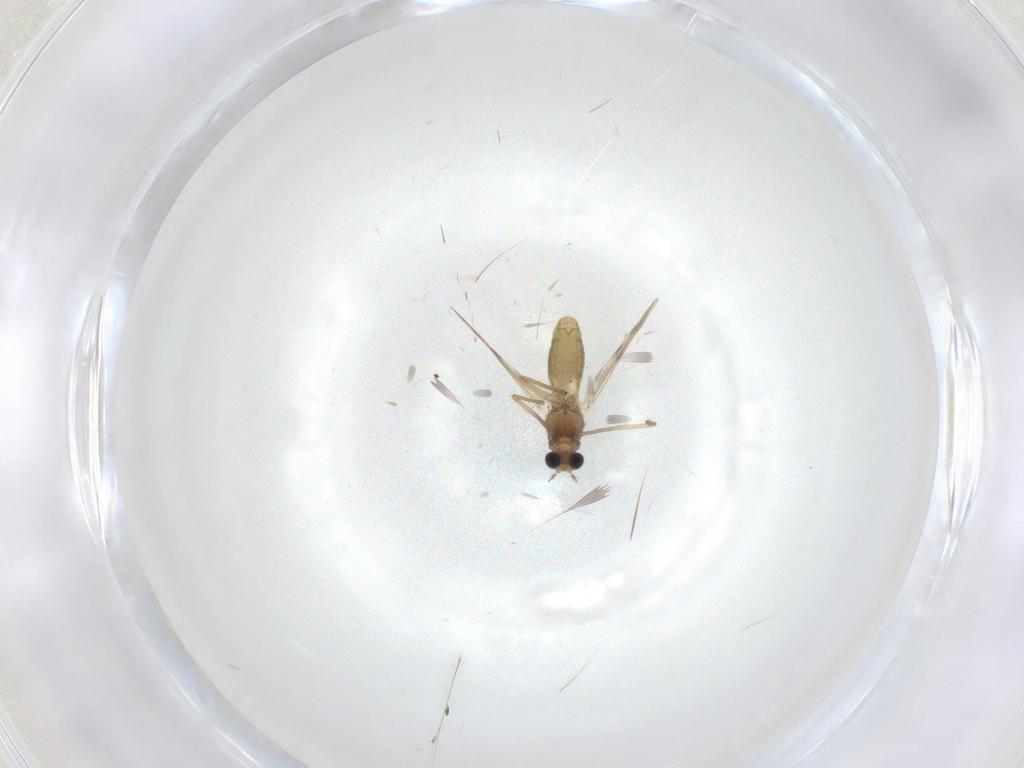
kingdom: Animalia
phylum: Arthropoda
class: Insecta
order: Diptera
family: Chironomidae
